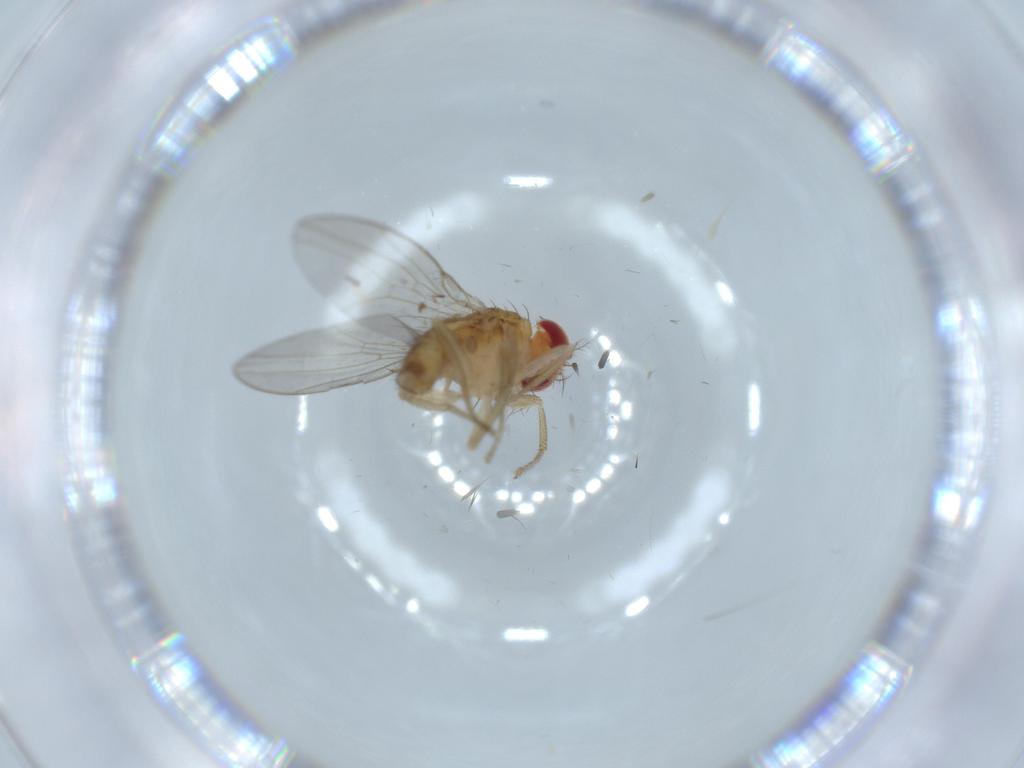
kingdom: Animalia
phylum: Arthropoda
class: Insecta
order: Diptera
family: Drosophilidae
